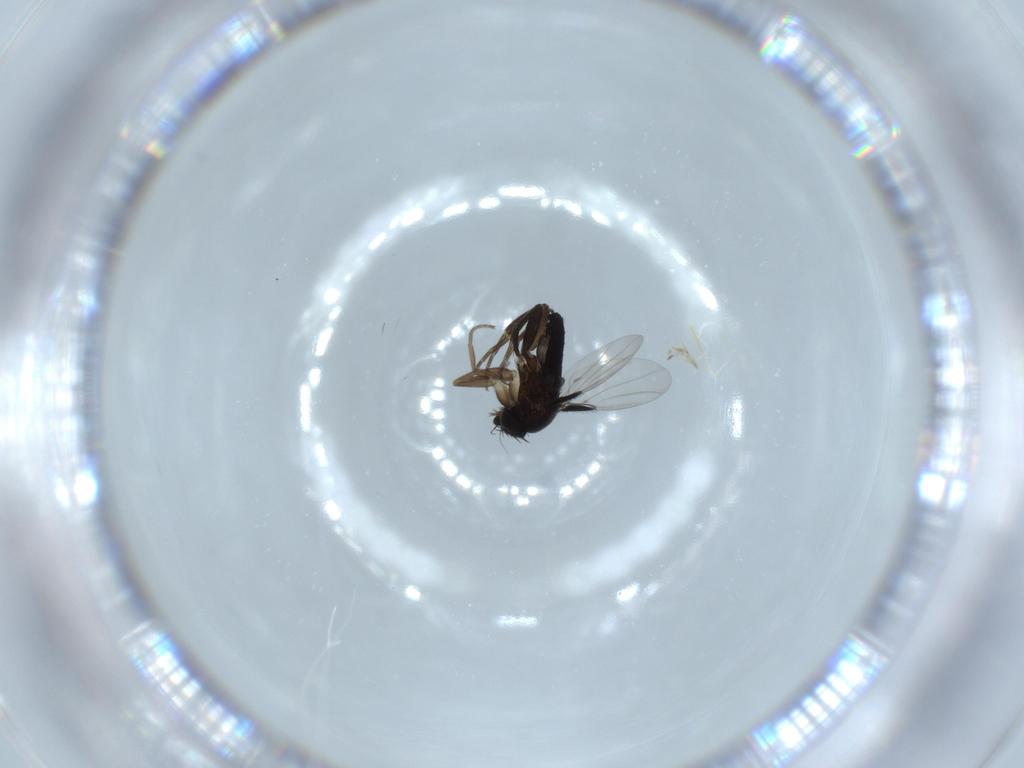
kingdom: Animalia
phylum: Arthropoda
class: Insecta
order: Diptera
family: Phoridae
